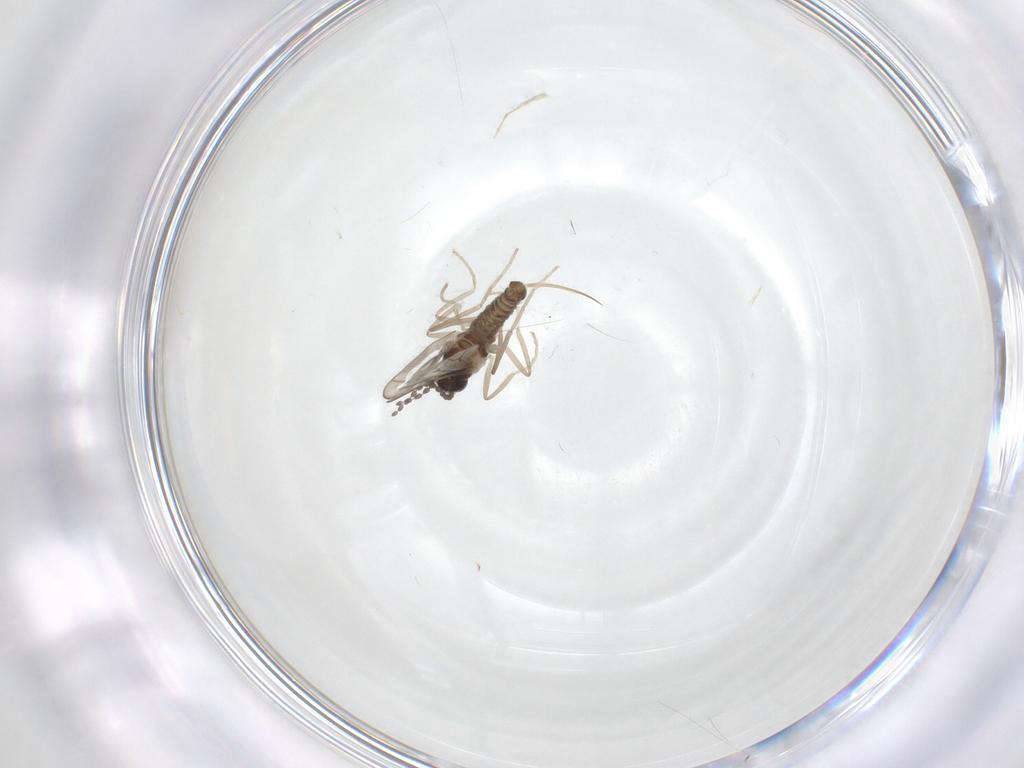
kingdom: Animalia
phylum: Arthropoda
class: Insecta
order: Diptera
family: Cecidomyiidae
